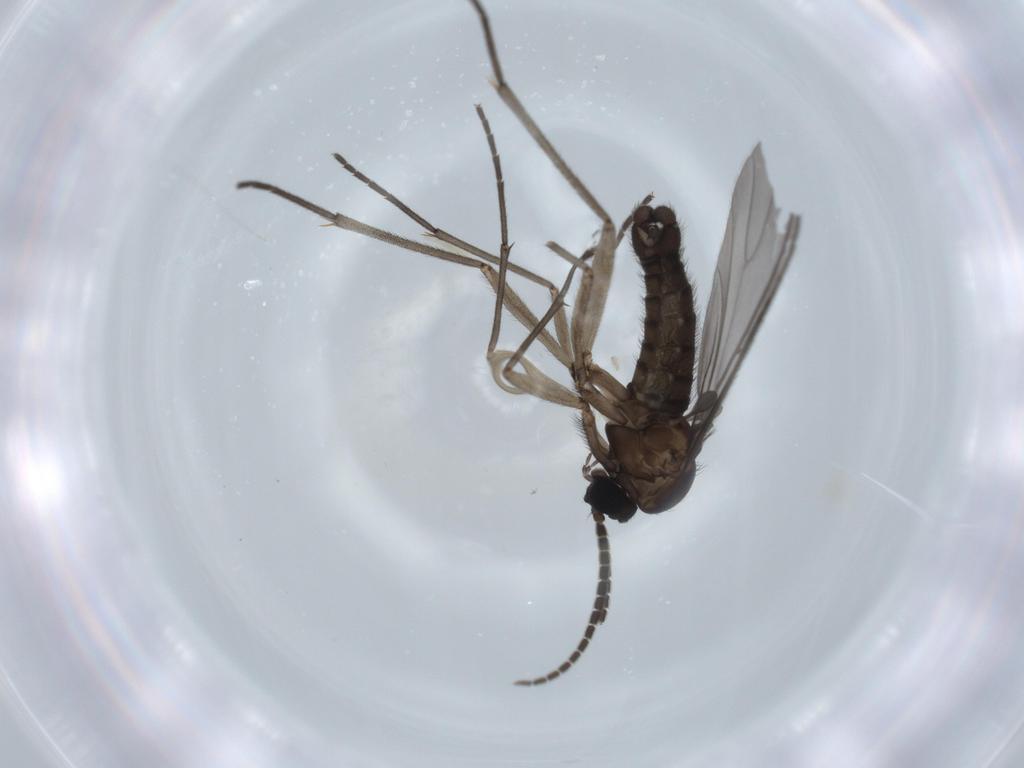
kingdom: Animalia
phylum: Arthropoda
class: Insecta
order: Diptera
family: Sciaridae
